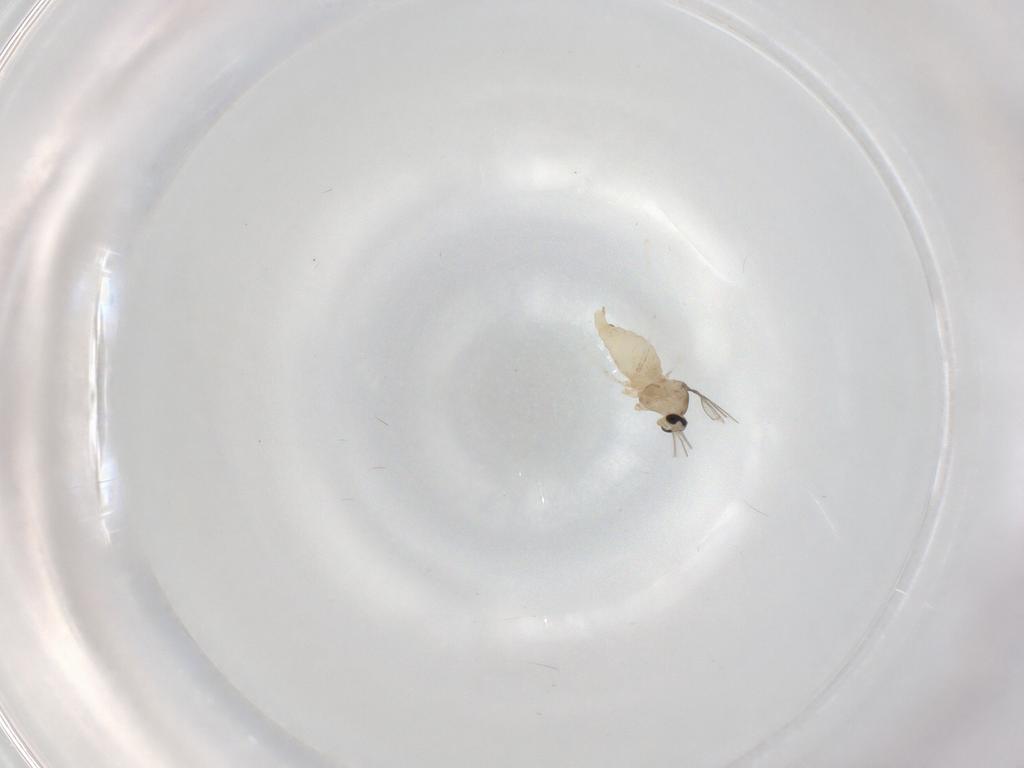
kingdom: Animalia
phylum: Arthropoda
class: Insecta
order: Diptera
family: Cecidomyiidae
